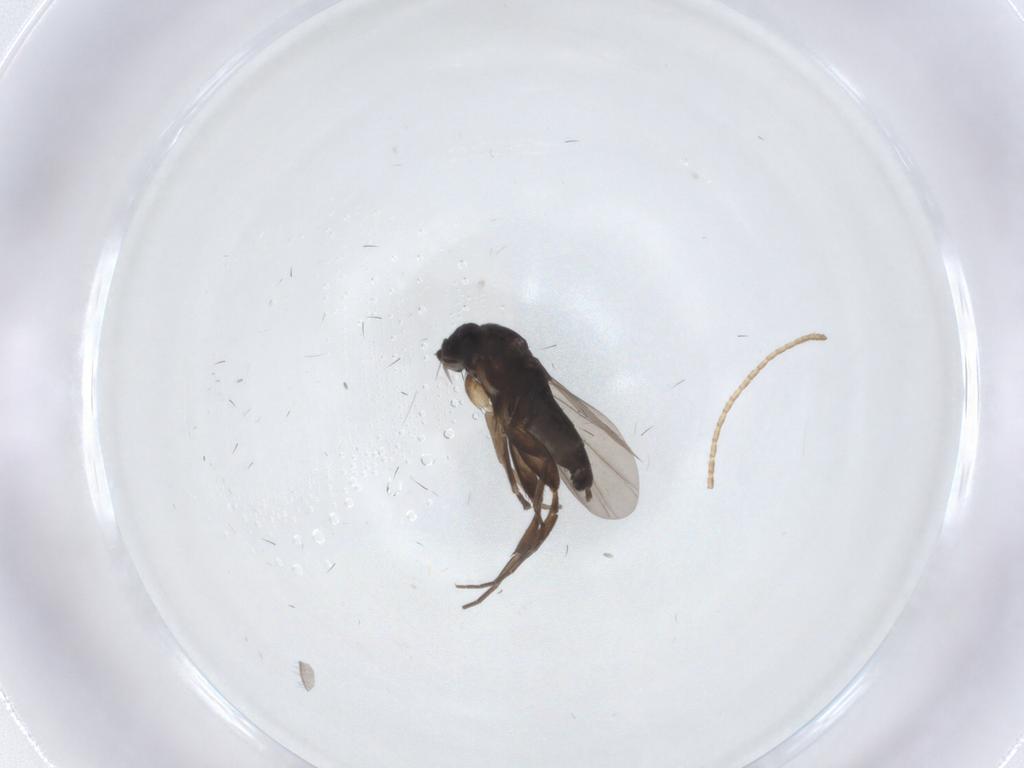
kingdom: Animalia
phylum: Arthropoda
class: Insecta
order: Diptera
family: Phoridae
